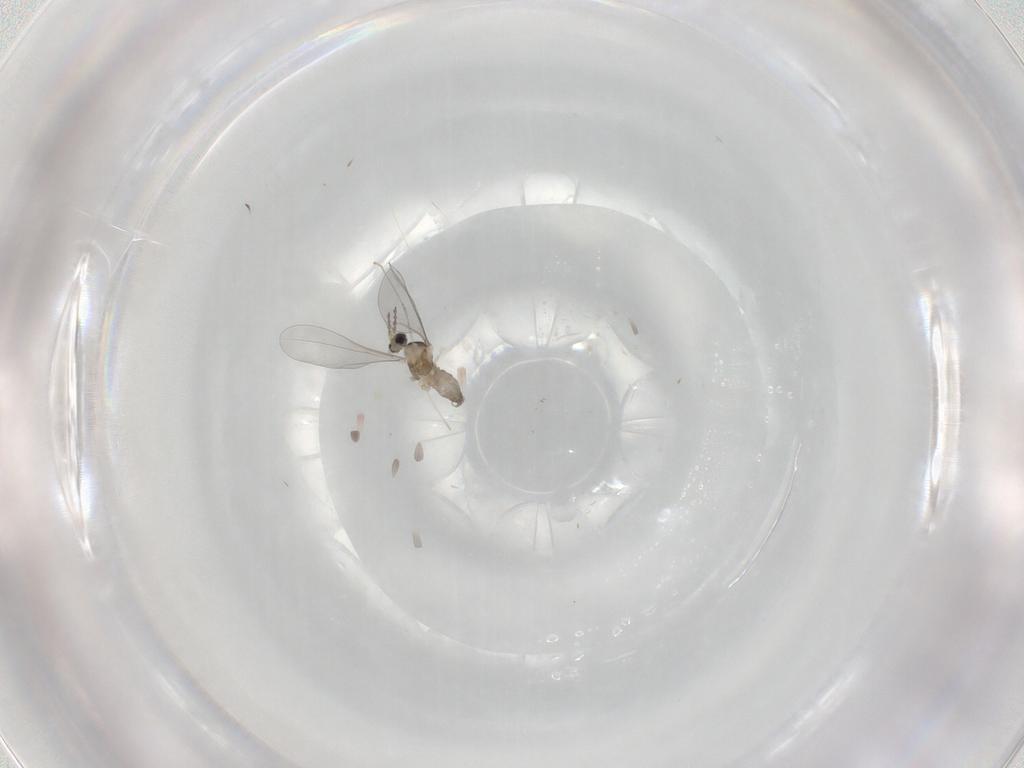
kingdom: Animalia
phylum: Arthropoda
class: Insecta
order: Diptera
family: Cecidomyiidae
